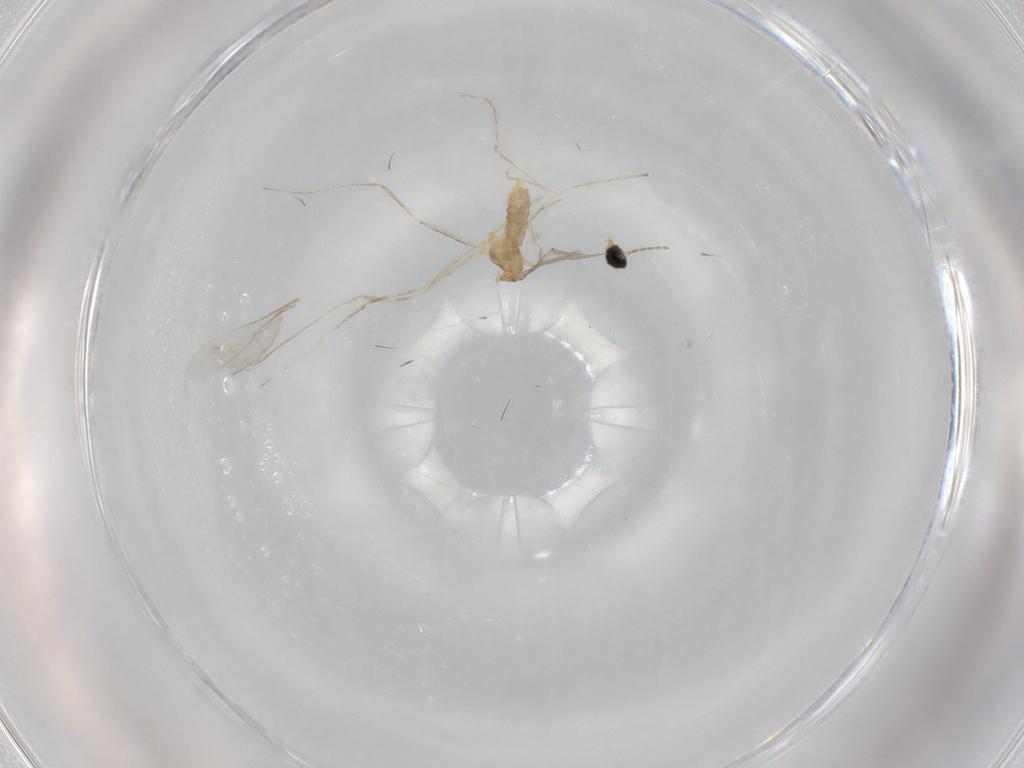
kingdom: Animalia
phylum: Arthropoda
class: Insecta
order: Diptera
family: Cecidomyiidae
